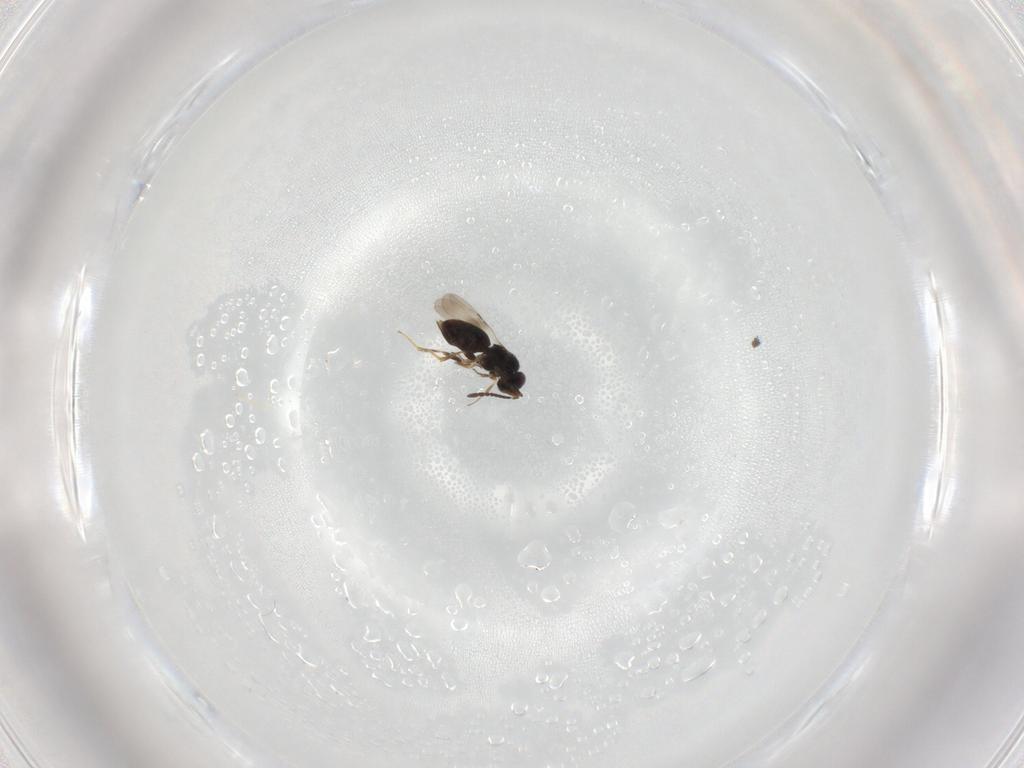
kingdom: Animalia
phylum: Arthropoda
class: Insecta
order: Hymenoptera
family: Ceraphronidae
